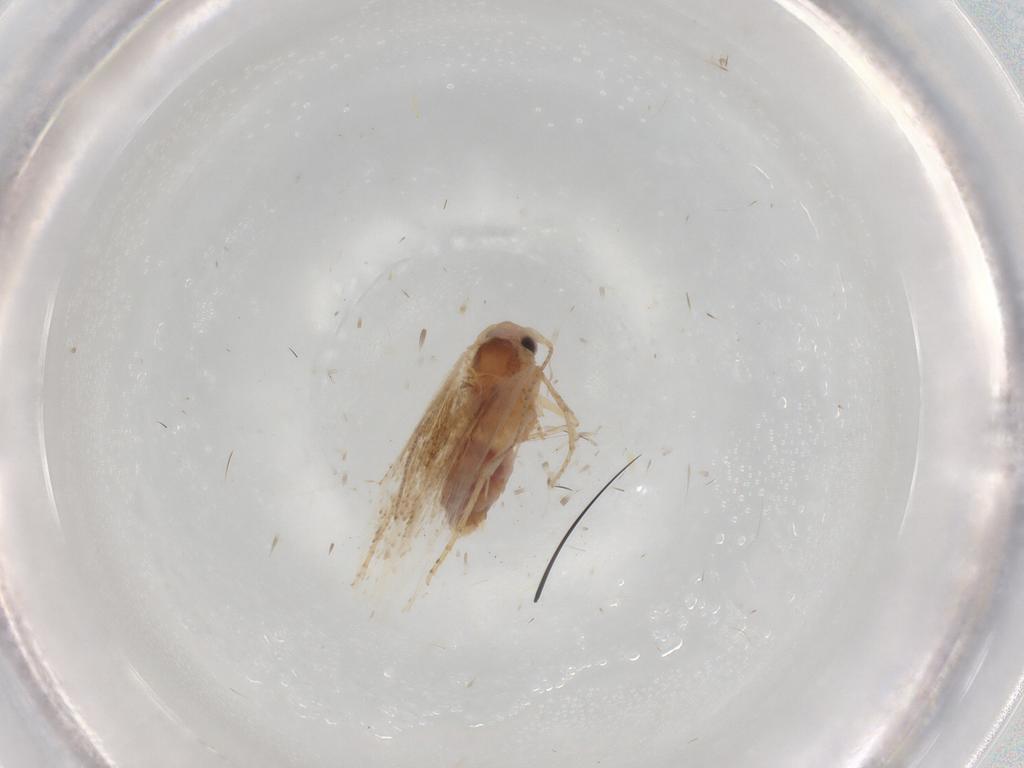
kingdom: Animalia
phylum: Arthropoda
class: Insecta
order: Lepidoptera
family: Bucculatricidae
